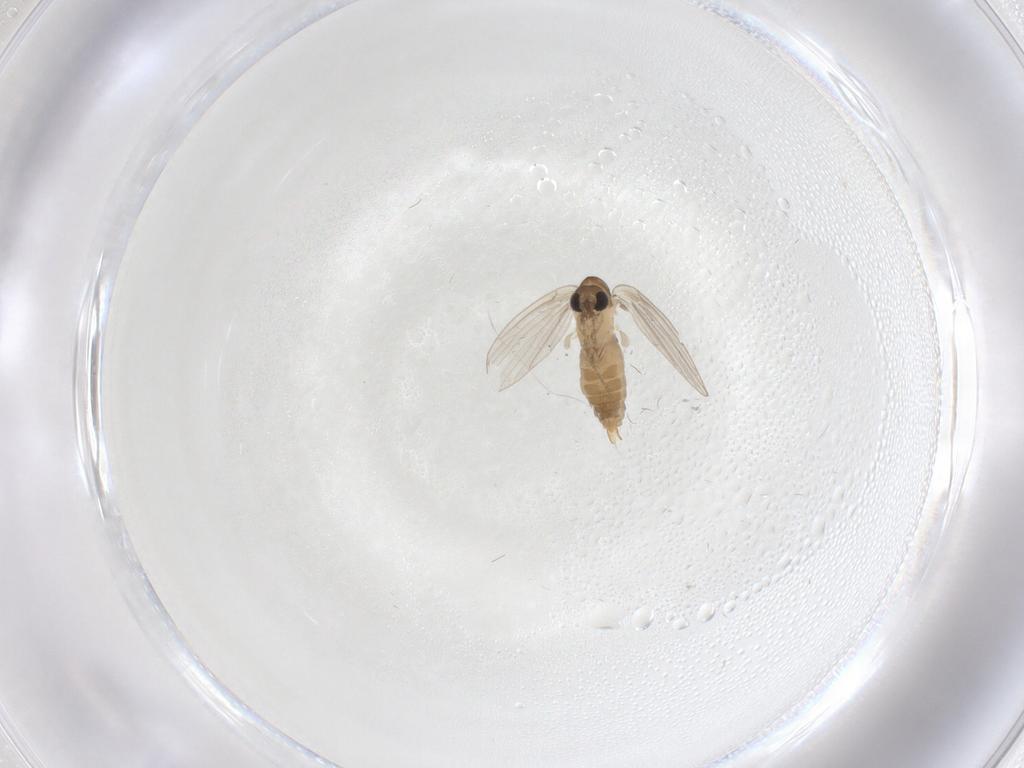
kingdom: Animalia
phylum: Arthropoda
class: Insecta
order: Diptera
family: Psychodidae
